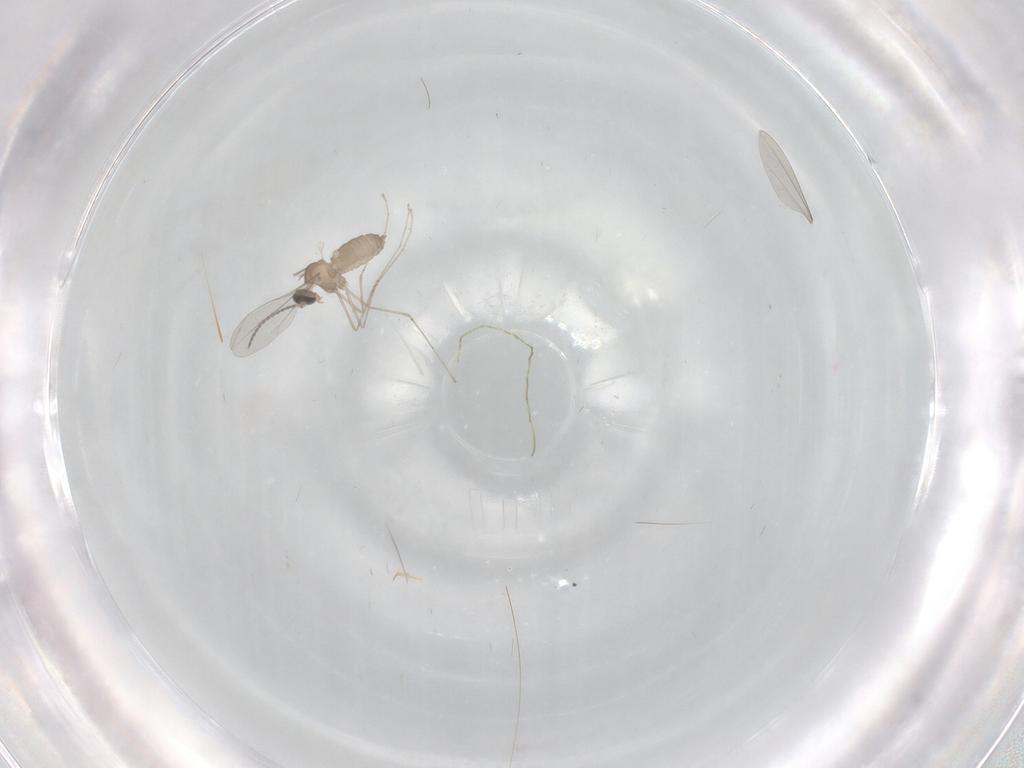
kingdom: Animalia
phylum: Arthropoda
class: Insecta
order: Diptera
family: Cecidomyiidae
